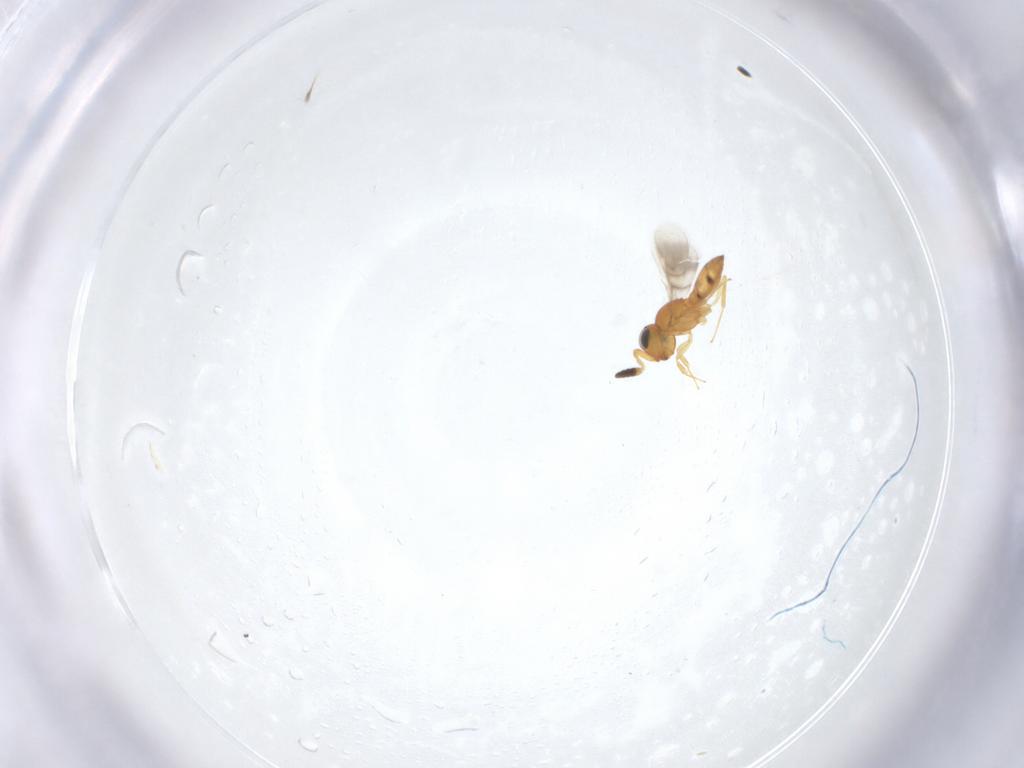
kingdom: Animalia
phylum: Arthropoda
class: Insecta
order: Hymenoptera
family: Scelionidae
